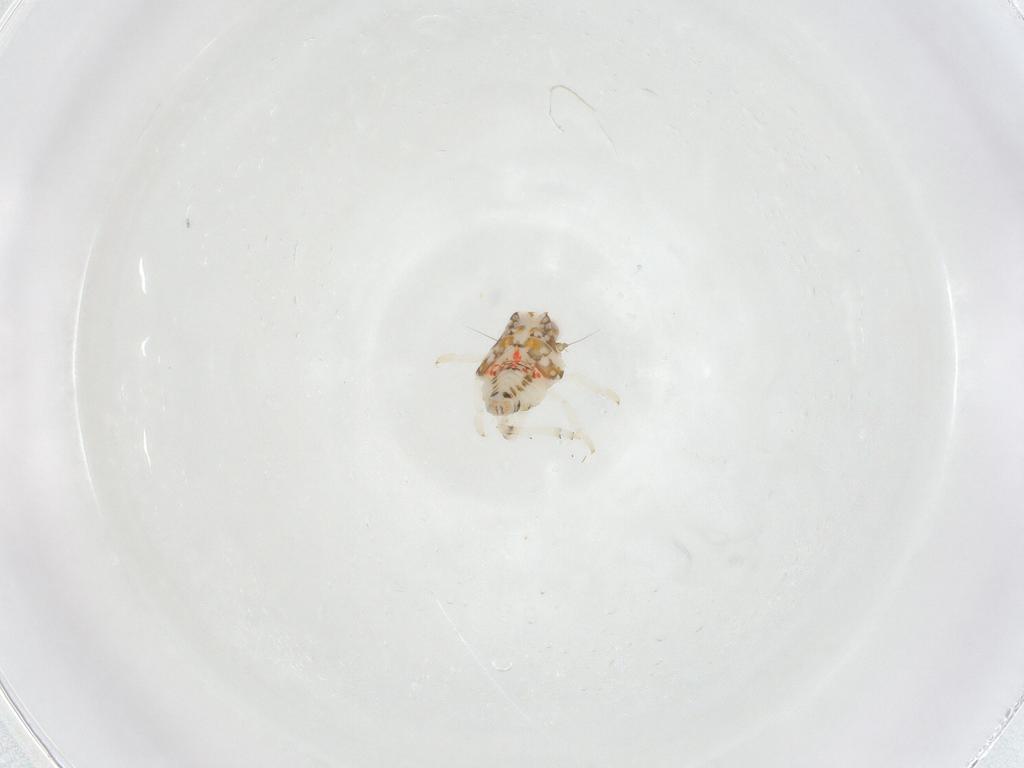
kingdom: Animalia
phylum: Arthropoda
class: Insecta
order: Hemiptera
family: Nogodinidae
